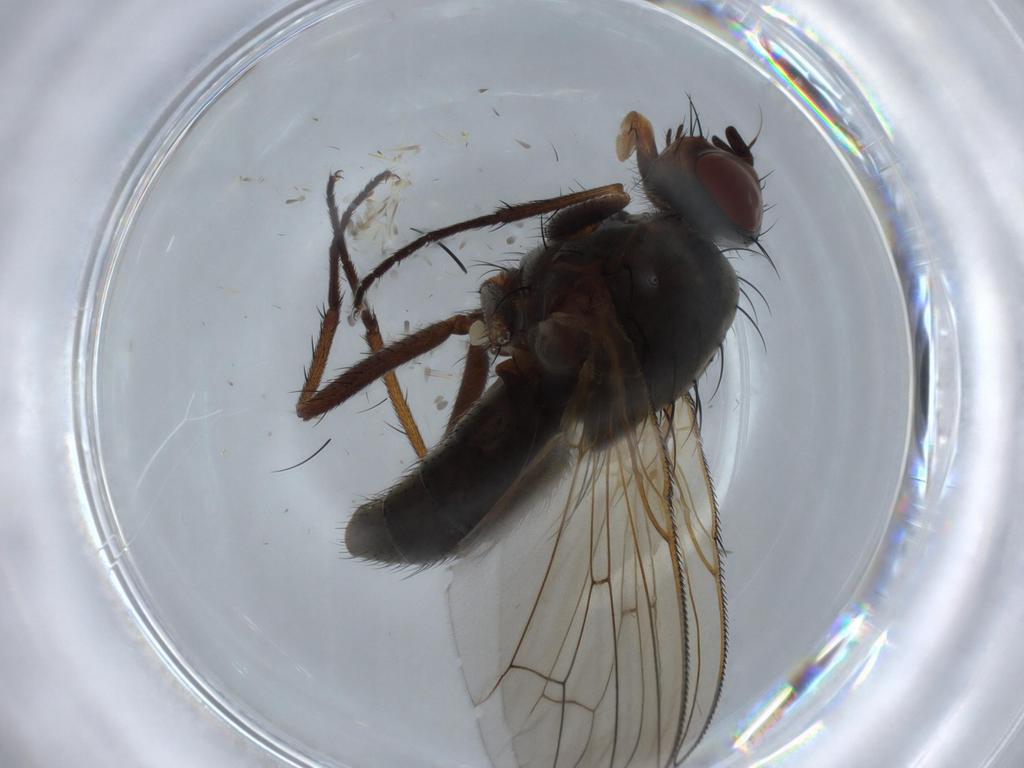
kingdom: Animalia
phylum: Arthropoda
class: Insecta
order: Diptera
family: Anthomyiidae
